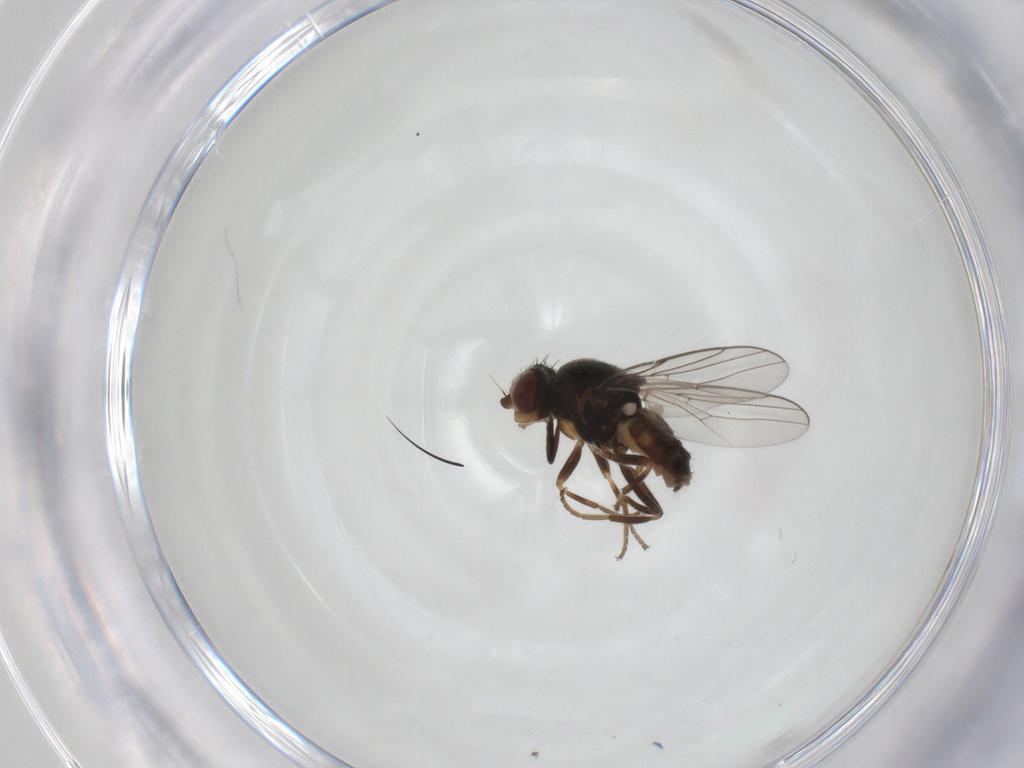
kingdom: Animalia
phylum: Arthropoda
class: Insecta
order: Diptera
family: Chloropidae
